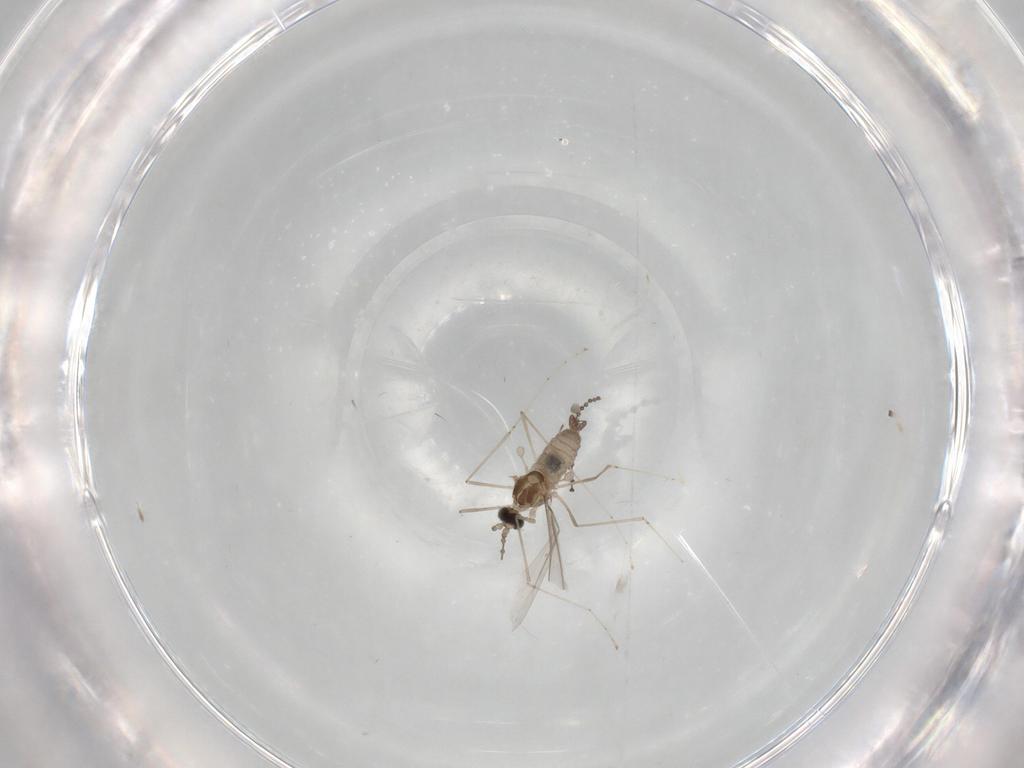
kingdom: Animalia
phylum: Arthropoda
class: Insecta
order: Diptera
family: Cecidomyiidae
